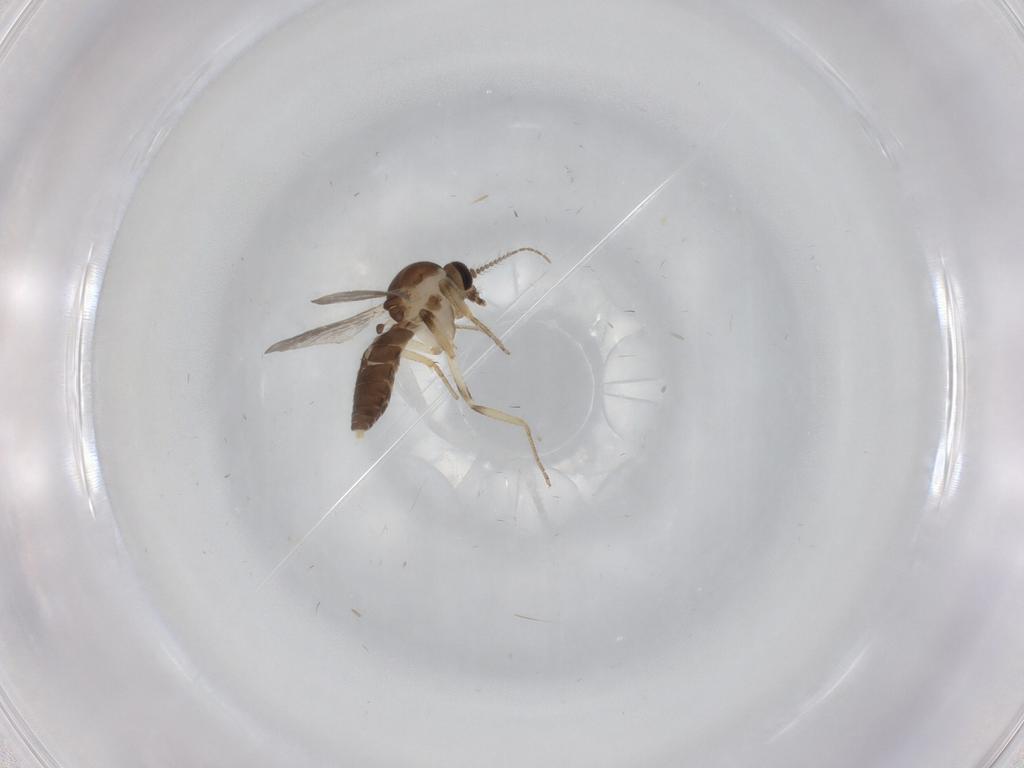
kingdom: Animalia
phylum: Arthropoda
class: Insecta
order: Diptera
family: Ceratopogonidae
